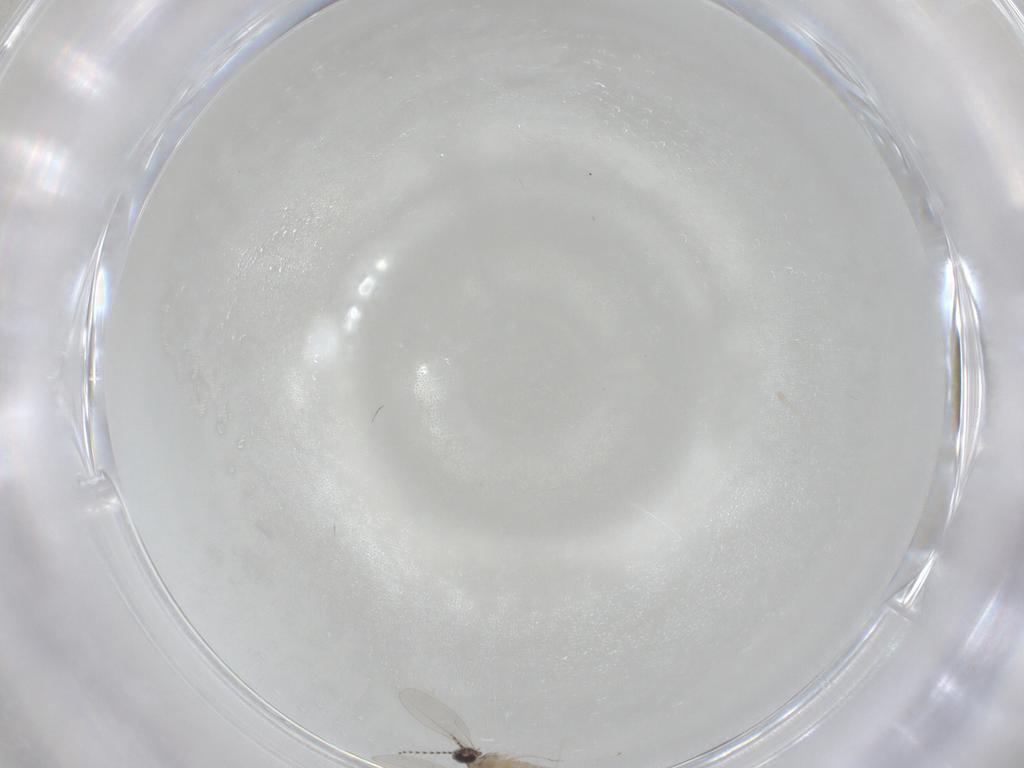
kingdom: Animalia
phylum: Arthropoda
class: Insecta
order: Diptera
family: Cecidomyiidae
